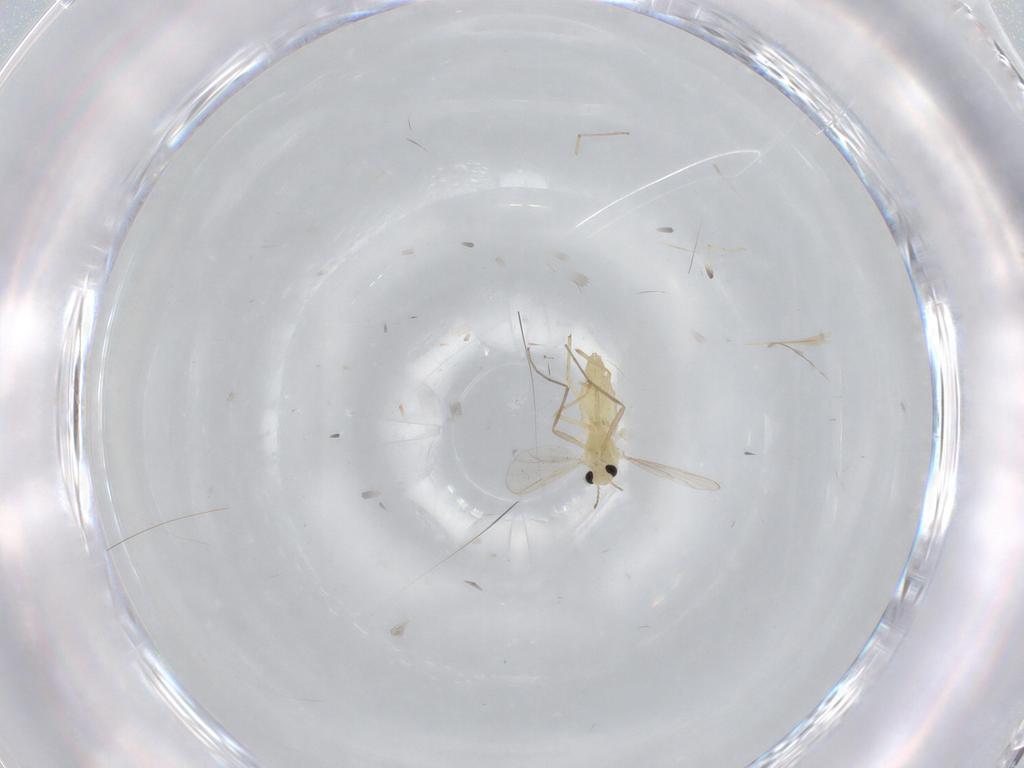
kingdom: Animalia
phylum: Arthropoda
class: Insecta
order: Diptera
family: Chironomidae
